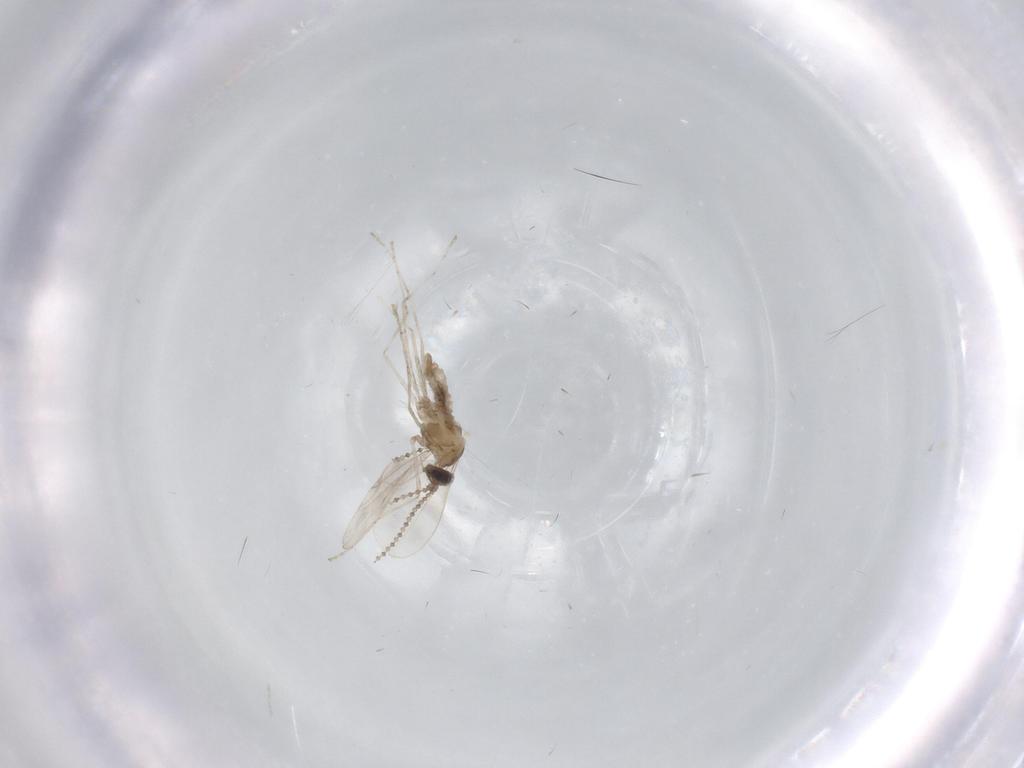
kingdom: Animalia
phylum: Arthropoda
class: Insecta
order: Diptera
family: Cecidomyiidae
